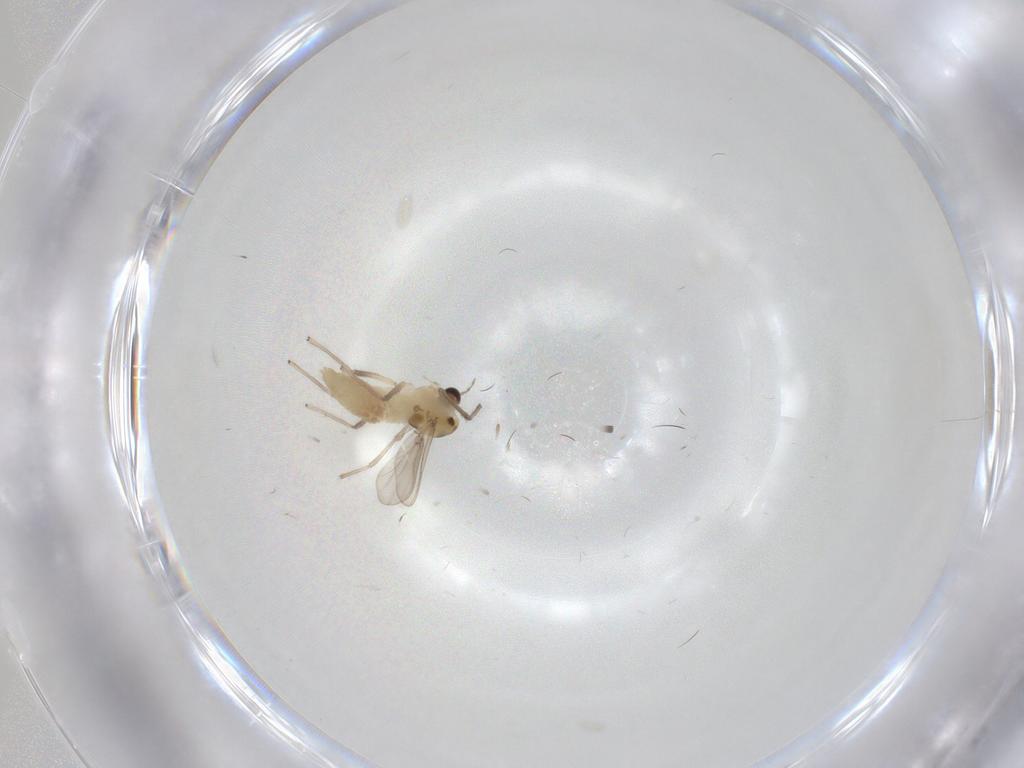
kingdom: Animalia
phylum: Arthropoda
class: Insecta
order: Diptera
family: Chironomidae
